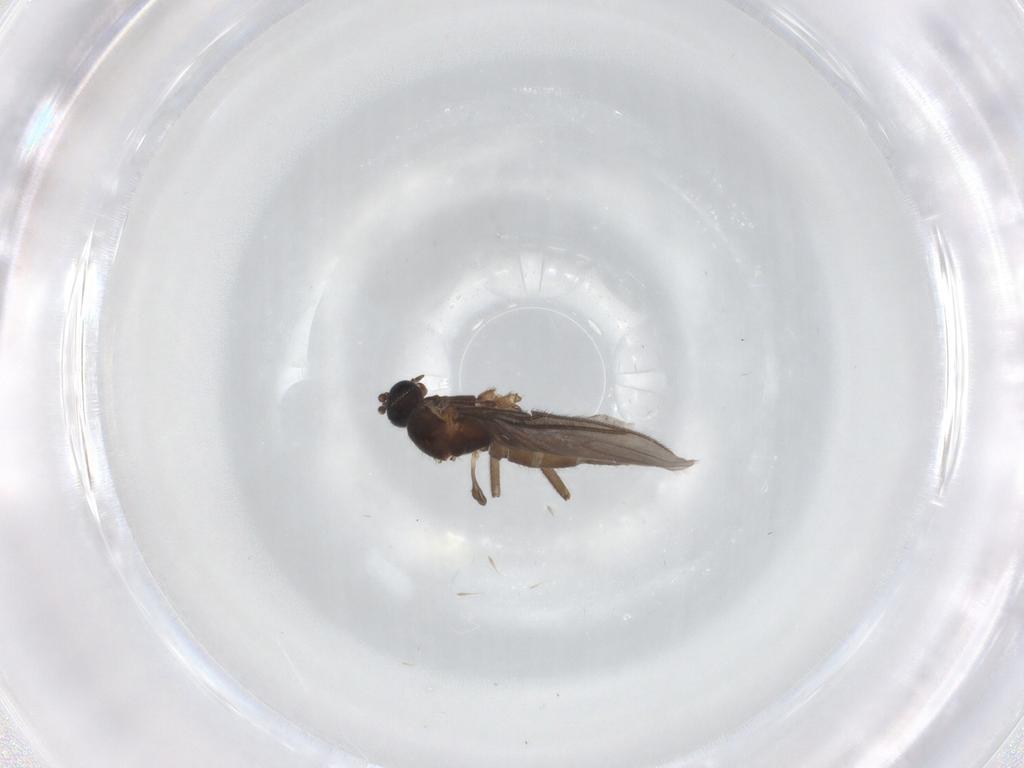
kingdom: Animalia
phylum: Arthropoda
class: Insecta
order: Diptera
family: Sciaridae
